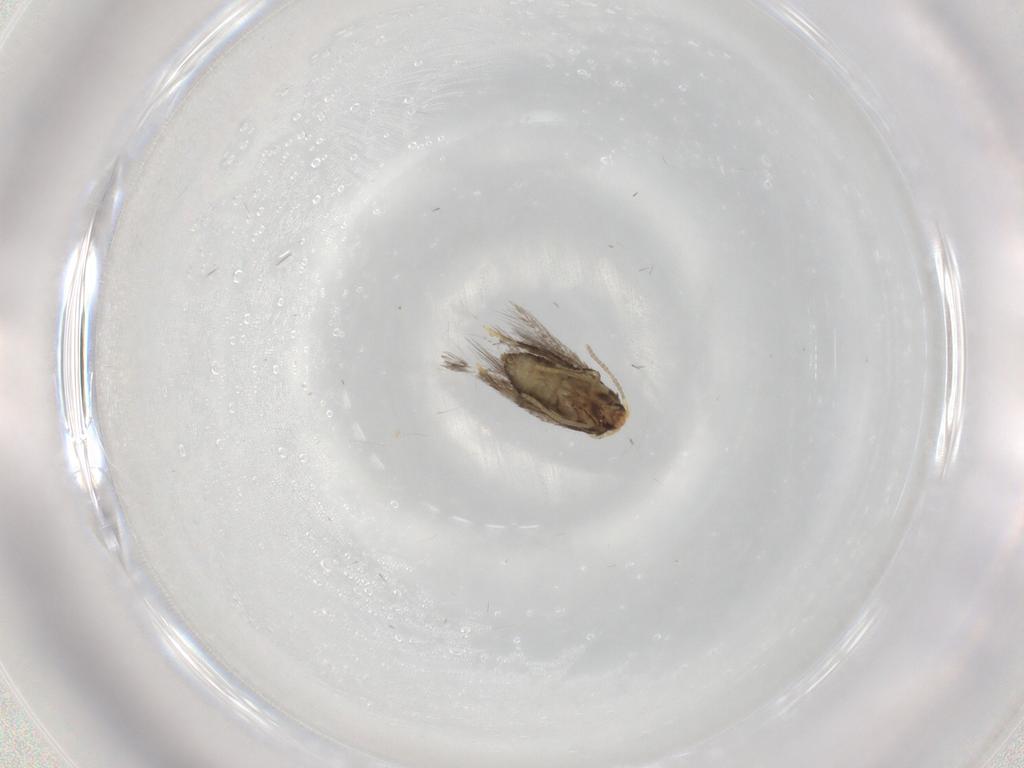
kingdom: Animalia
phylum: Arthropoda
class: Insecta
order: Lepidoptera
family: Nepticulidae
